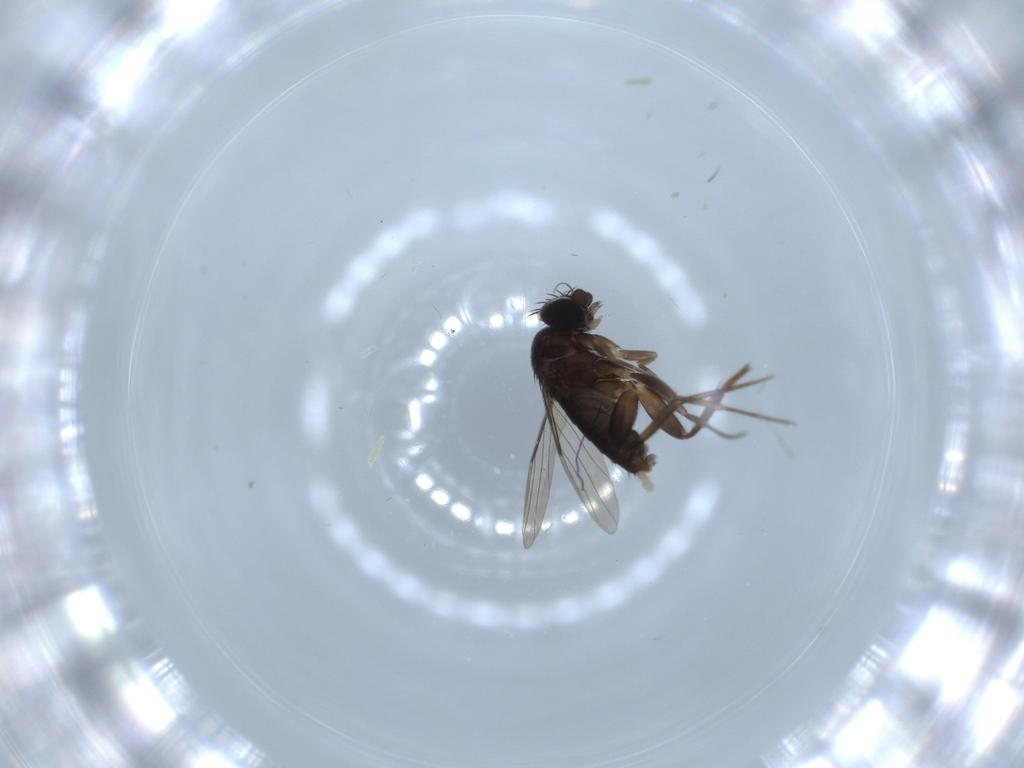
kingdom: Animalia
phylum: Arthropoda
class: Insecta
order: Diptera
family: Phoridae
